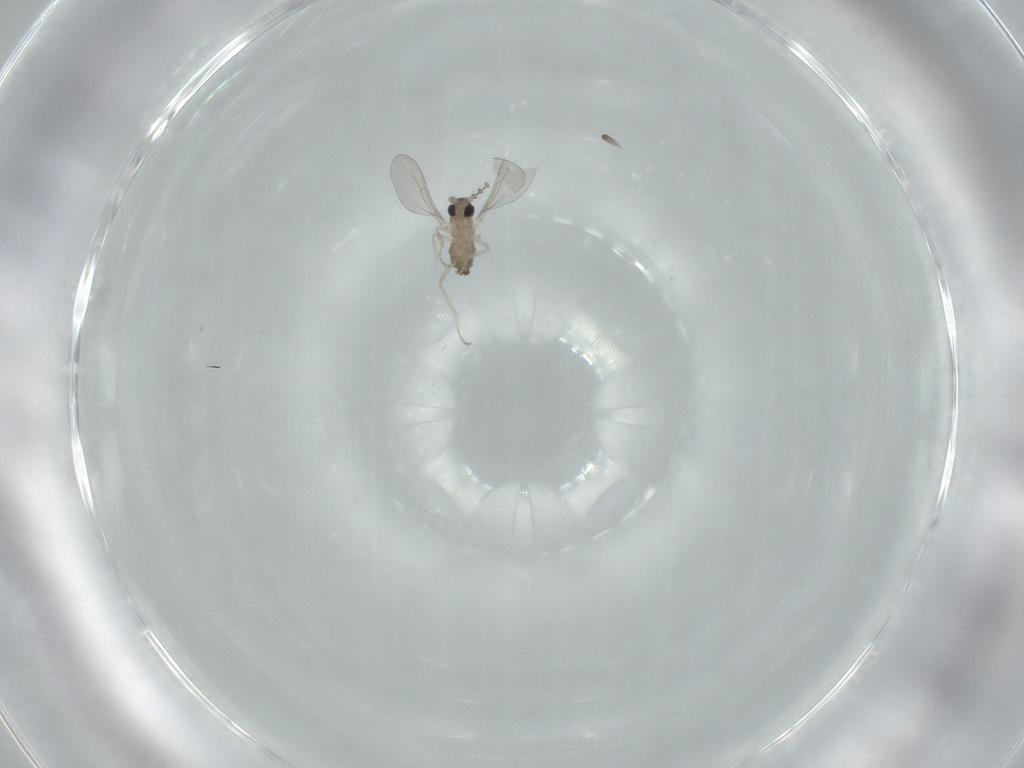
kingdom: Animalia
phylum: Arthropoda
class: Insecta
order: Diptera
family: Cecidomyiidae
